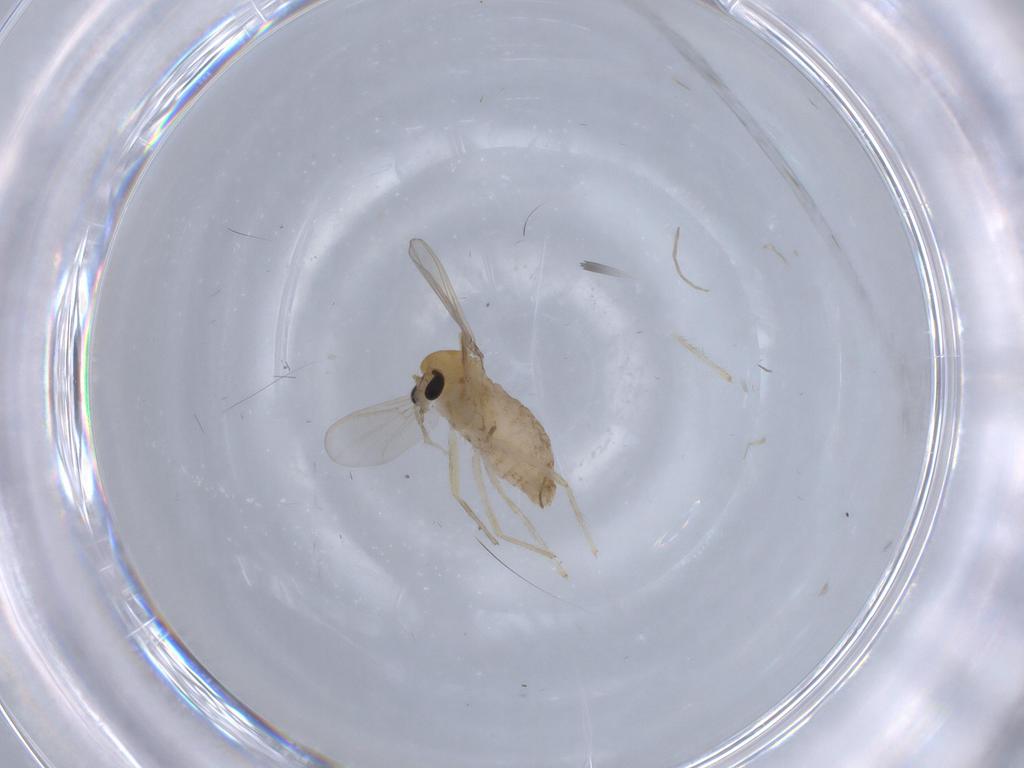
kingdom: Animalia
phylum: Arthropoda
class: Insecta
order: Diptera
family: Chironomidae
